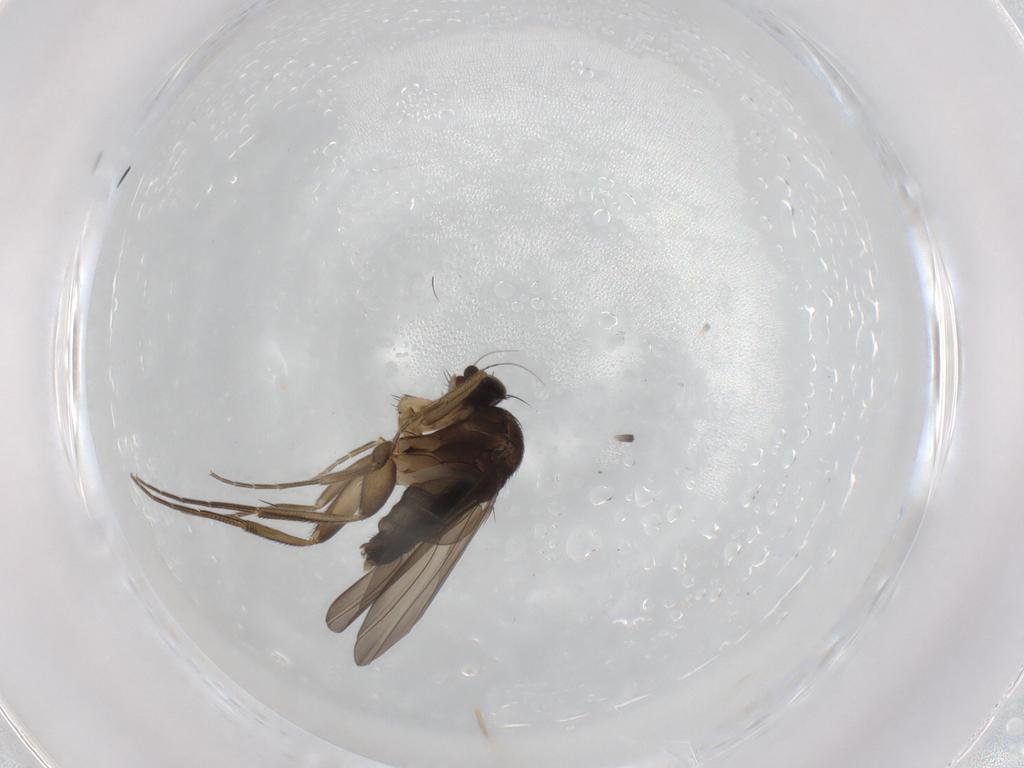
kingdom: Animalia
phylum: Arthropoda
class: Insecta
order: Diptera
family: Phoridae
